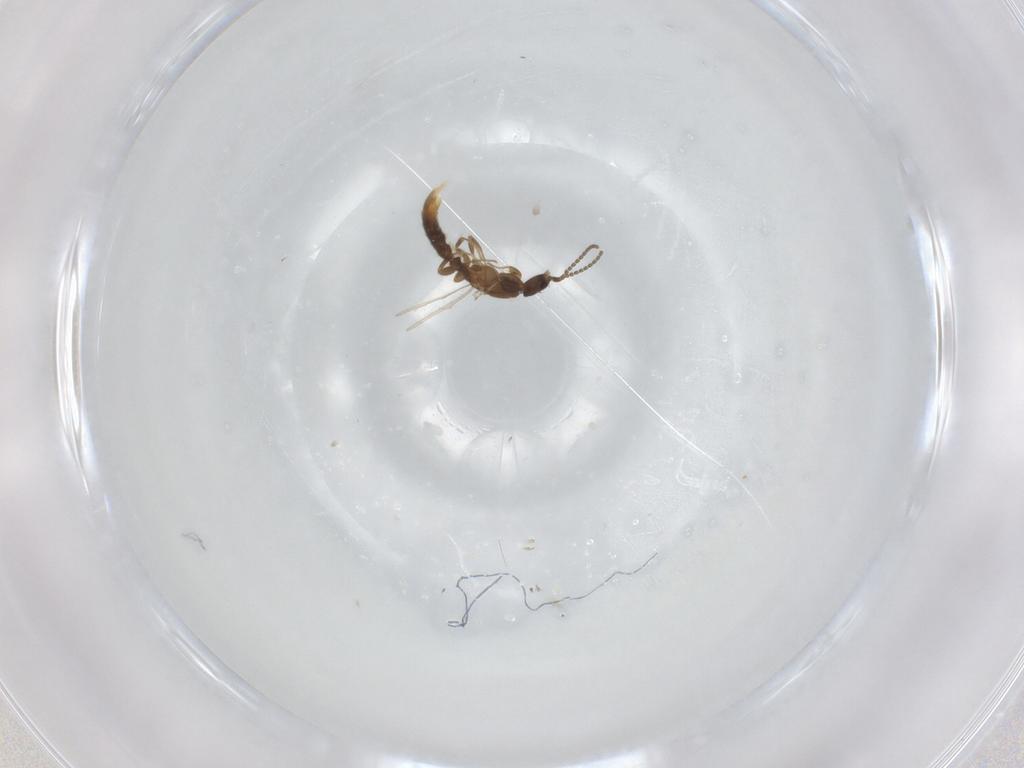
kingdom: Animalia
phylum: Arthropoda
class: Insecta
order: Hymenoptera
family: Formicidae
